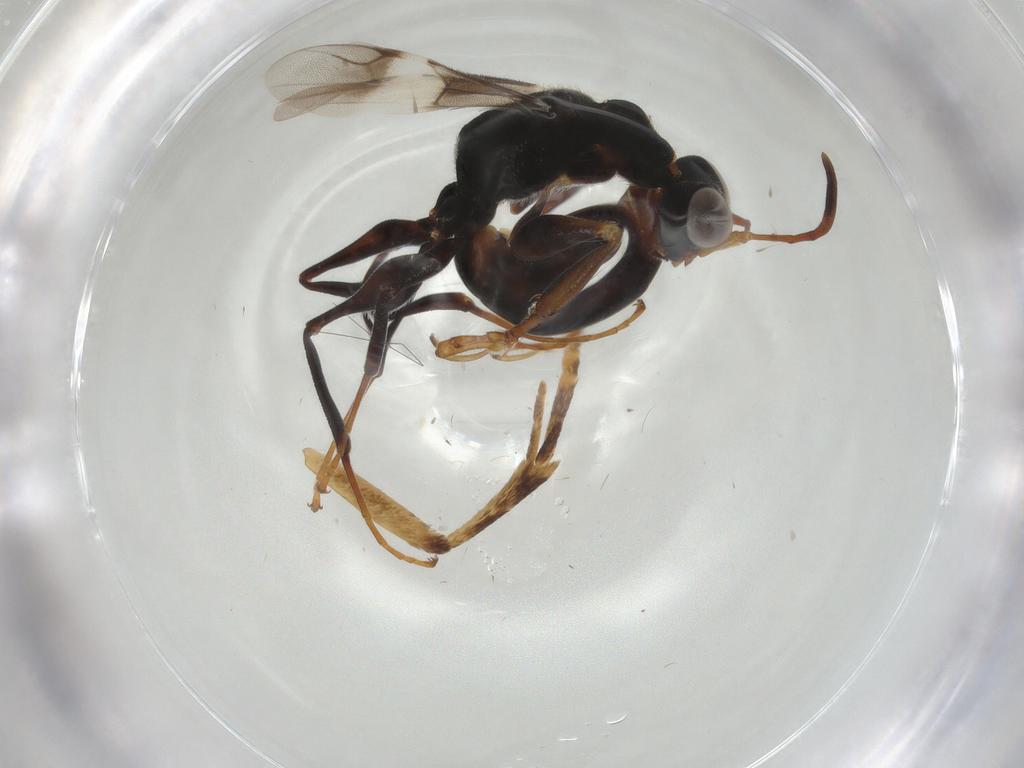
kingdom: Animalia
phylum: Arthropoda
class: Insecta
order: Hymenoptera
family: Dryinidae
